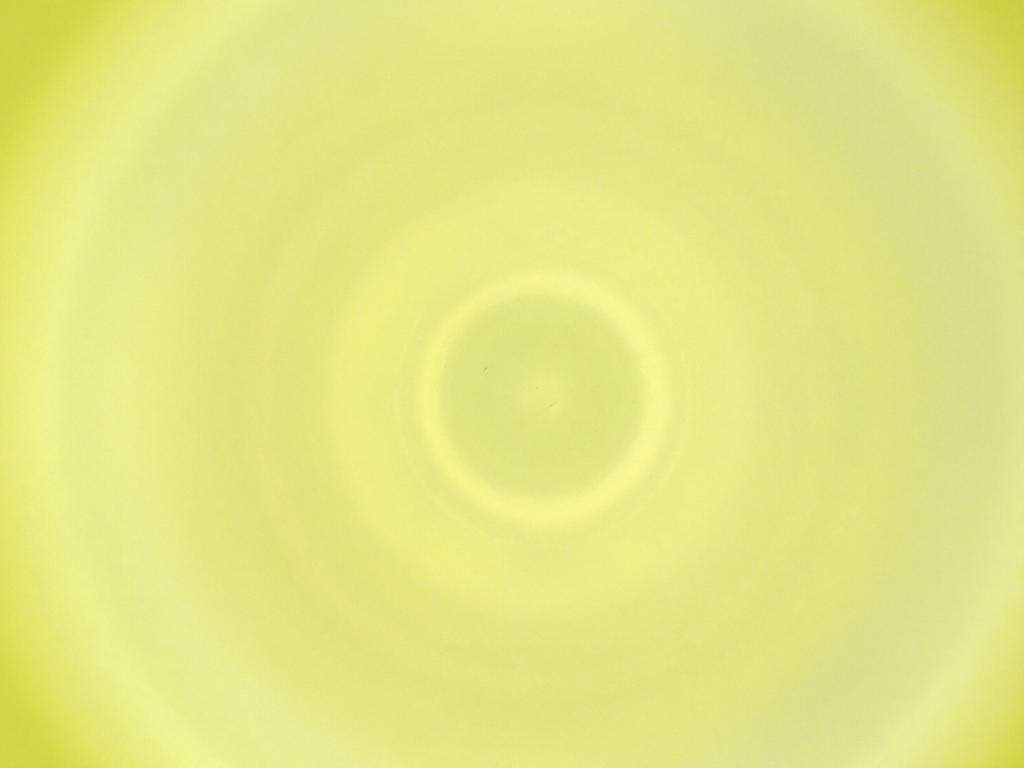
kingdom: Animalia
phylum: Arthropoda
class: Insecta
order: Diptera
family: Cecidomyiidae
